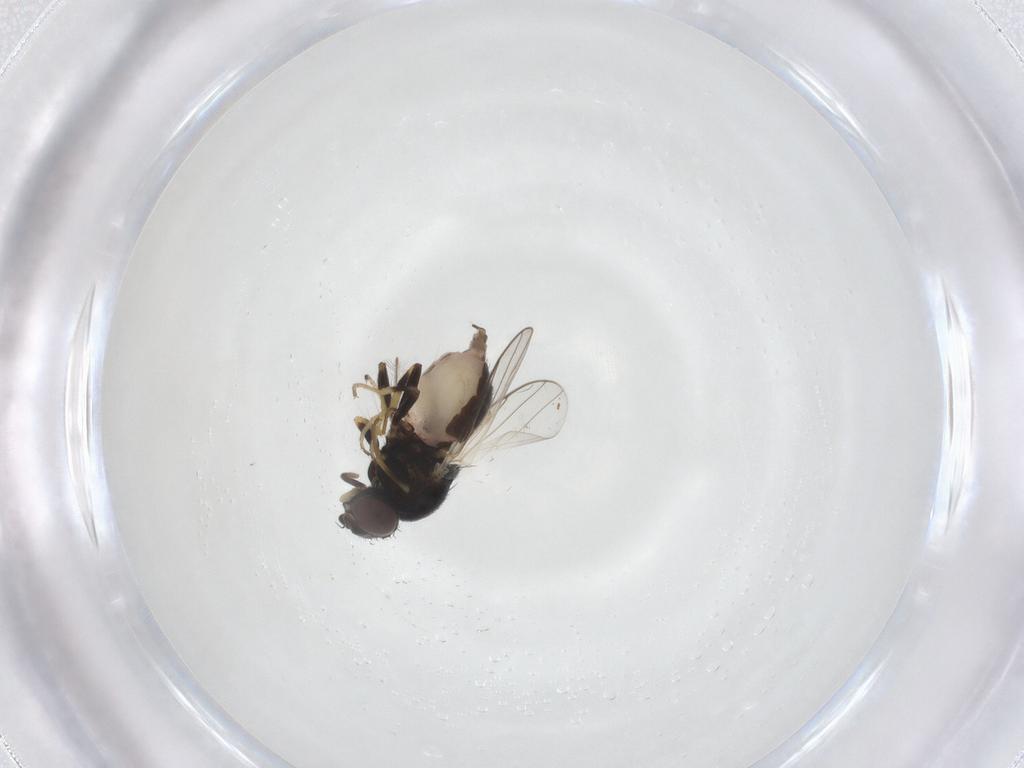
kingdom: Animalia
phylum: Arthropoda
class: Insecta
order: Diptera
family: Chloropidae
